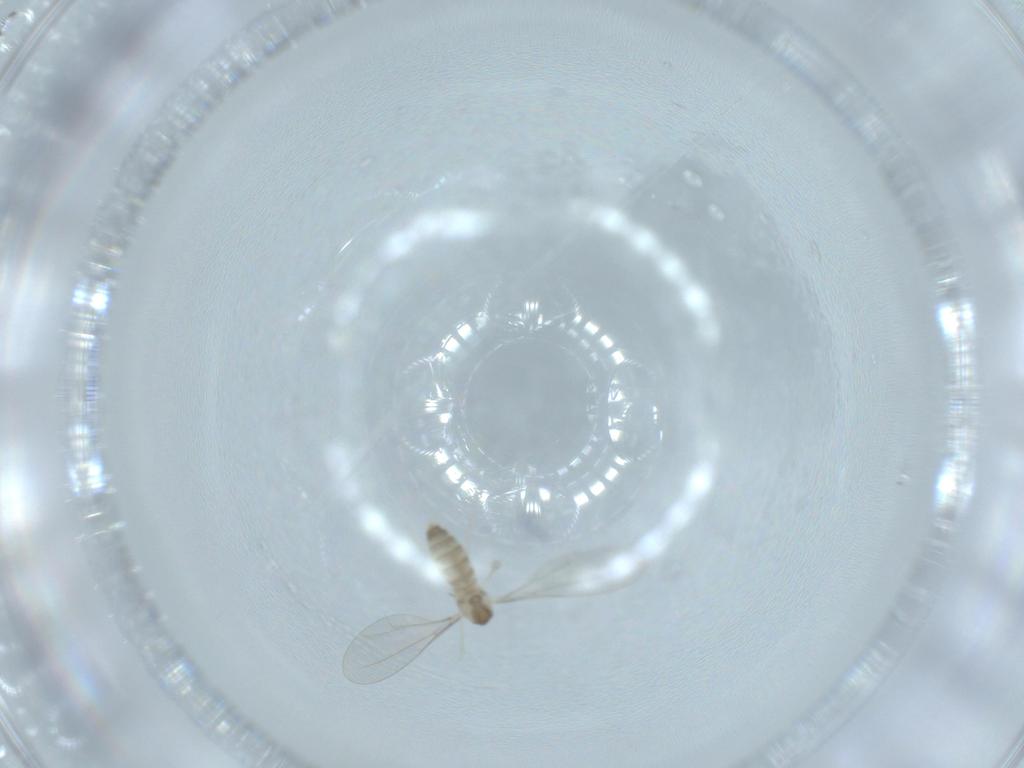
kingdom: Animalia
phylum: Arthropoda
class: Insecta
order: Diptera
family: Cecidomyiidae
